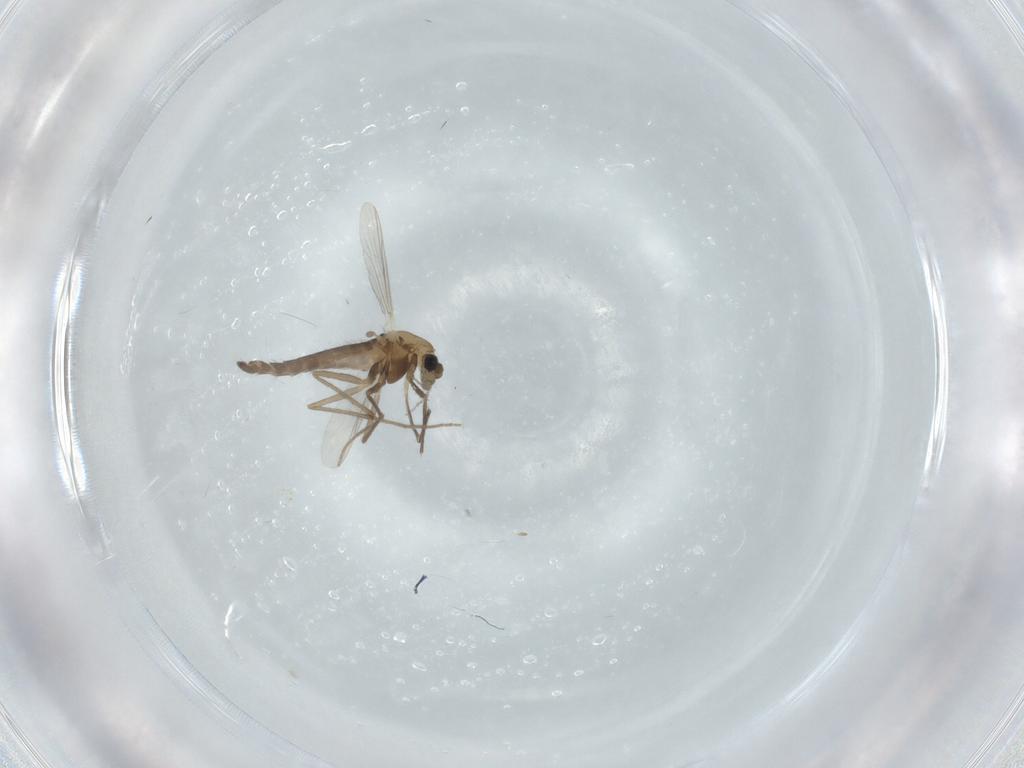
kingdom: Animalia
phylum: Arthropoda
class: Insecta
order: Diptera
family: Chironomidae
